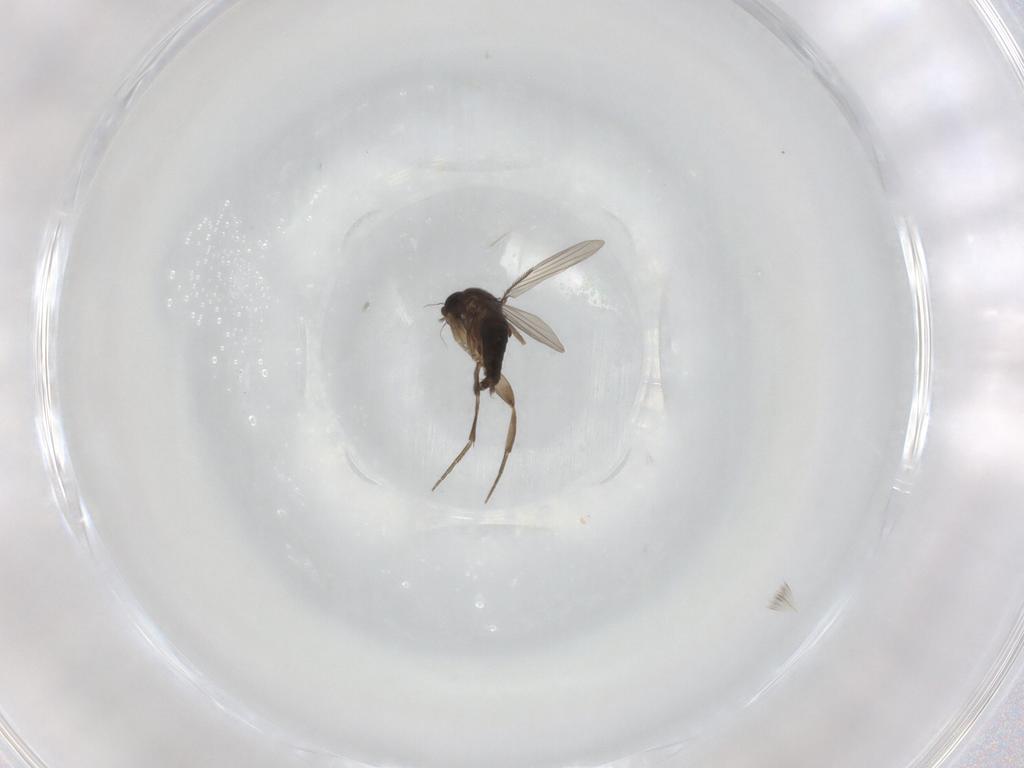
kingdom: Animalia
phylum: Arthropoda
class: Insecta
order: Diptera
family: Phoridae
